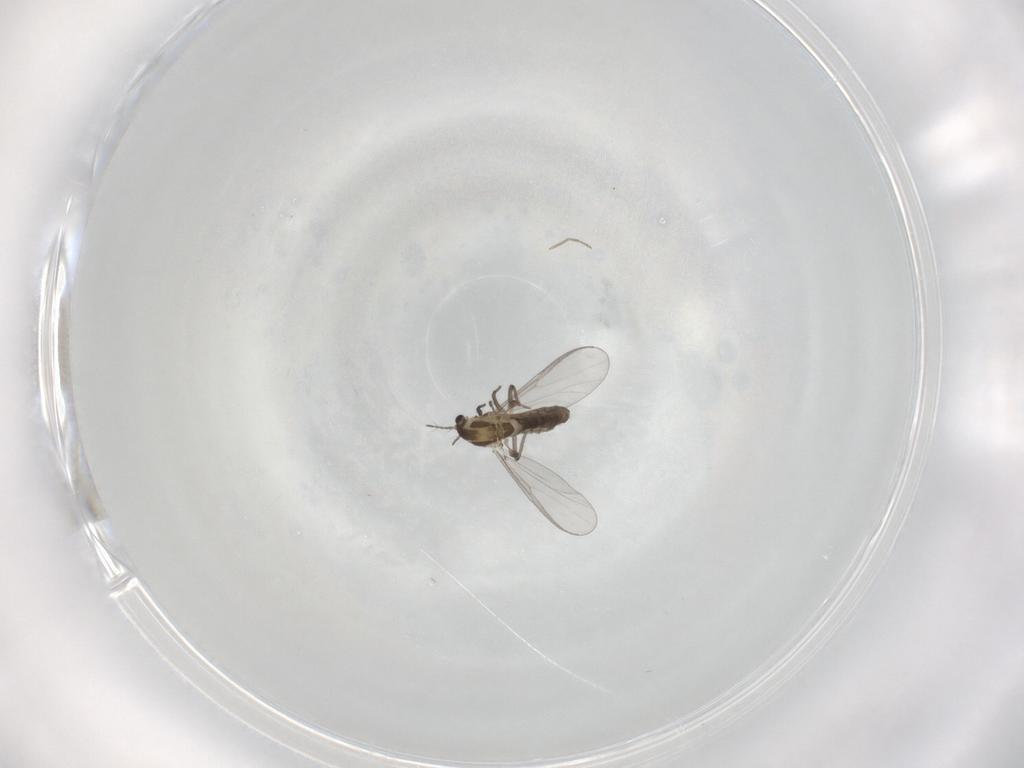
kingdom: Animalia
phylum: Arthropoda
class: Insecta
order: Diptera
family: Chironomidae
